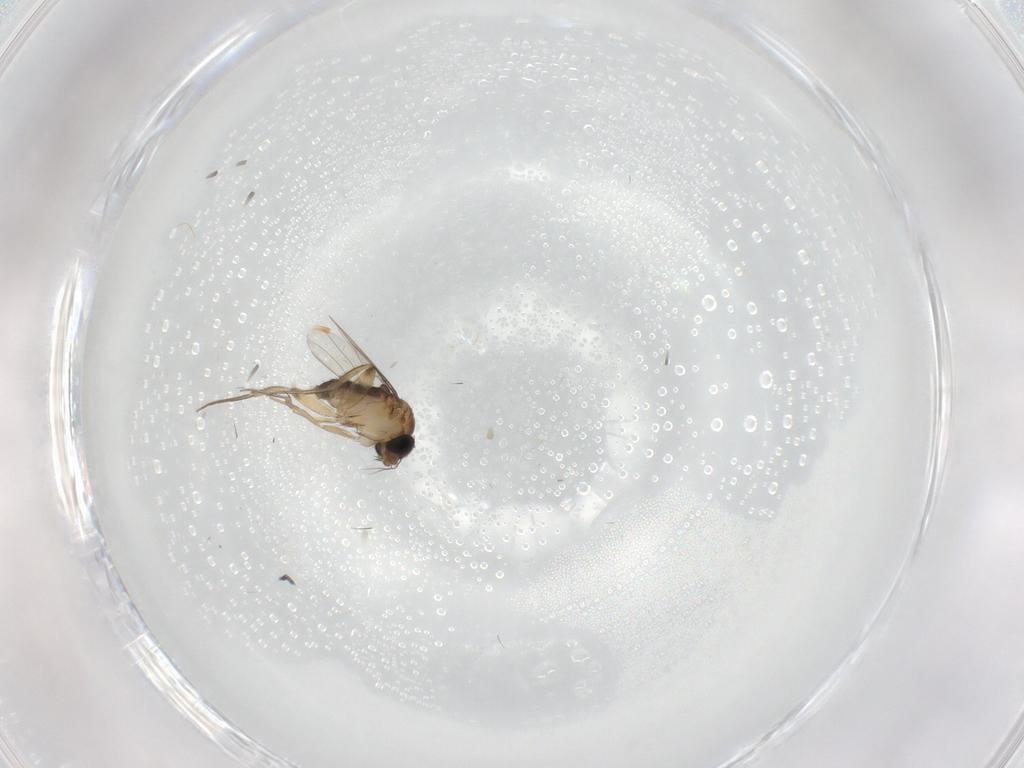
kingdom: Animalia
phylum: Arthropoda
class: Insecta
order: Diptera
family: Phoridae
